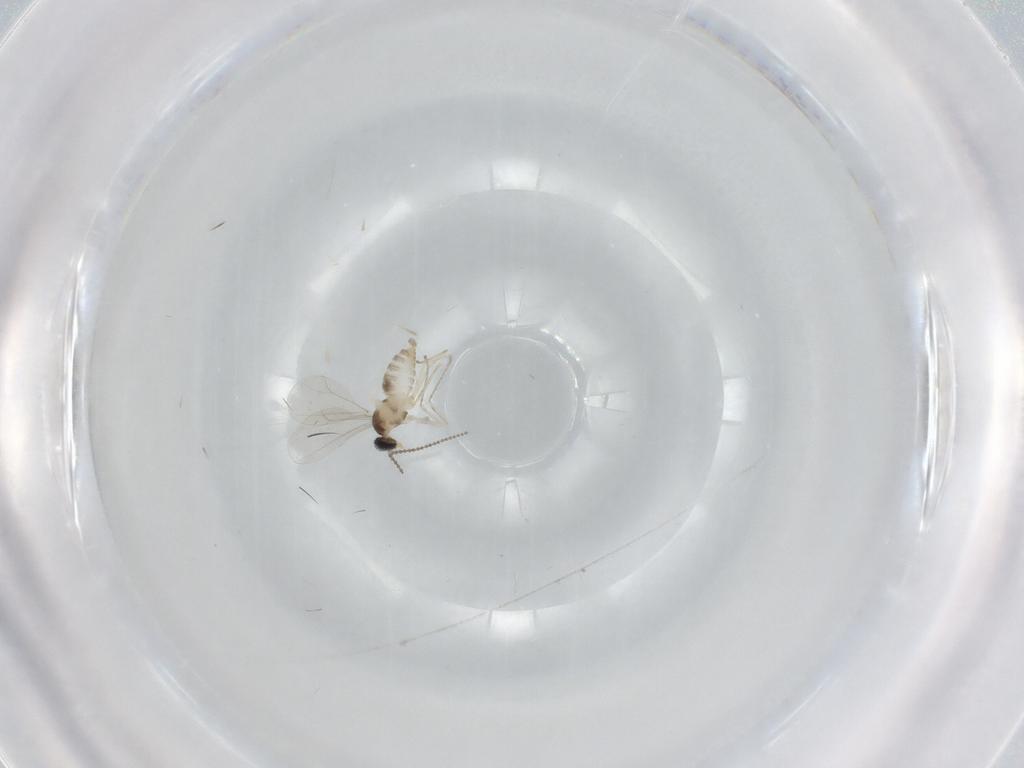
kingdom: Animalia
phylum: Arthropoda
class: Insecta
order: Diptera
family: Cecidomyiidae
